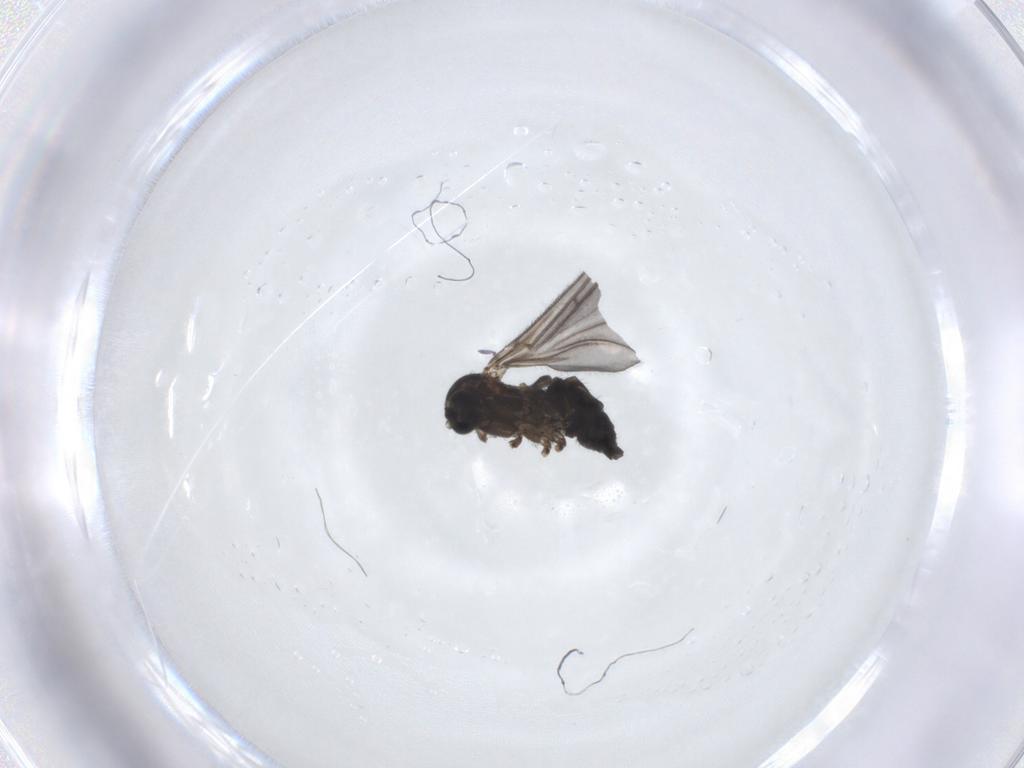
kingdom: Animalia
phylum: Arthropoda
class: Insecta
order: Diptera
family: Sciaridae
